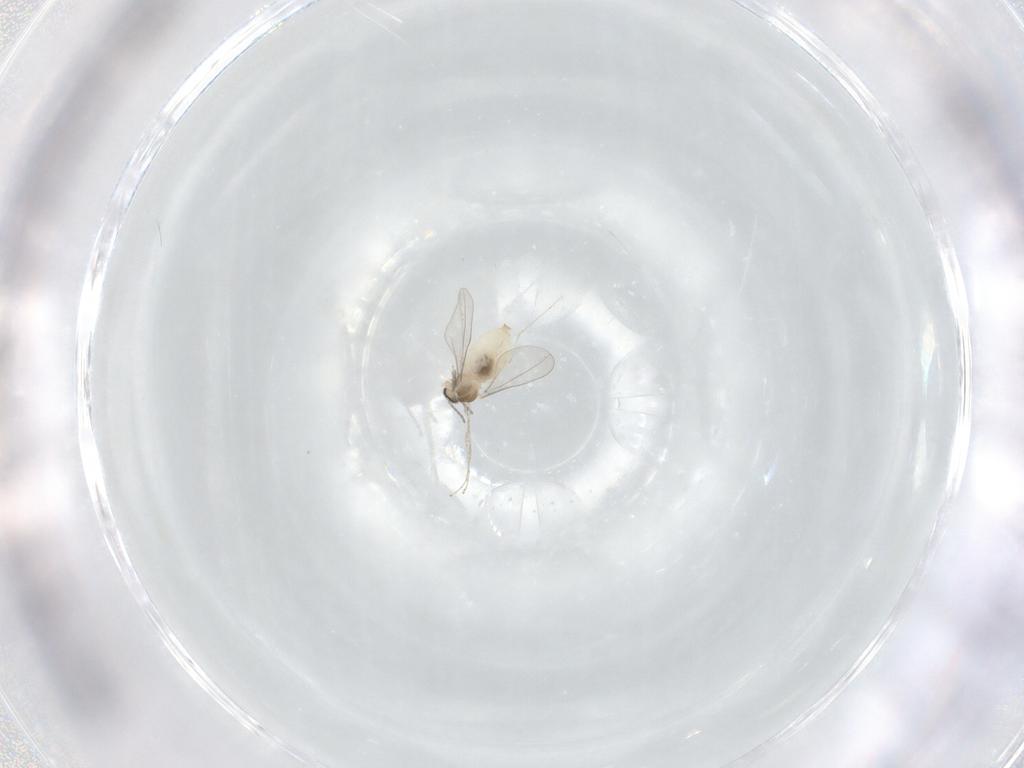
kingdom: Animalia
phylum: Arthropoda
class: Insecta
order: Diptera
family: Cecidomyiidae
